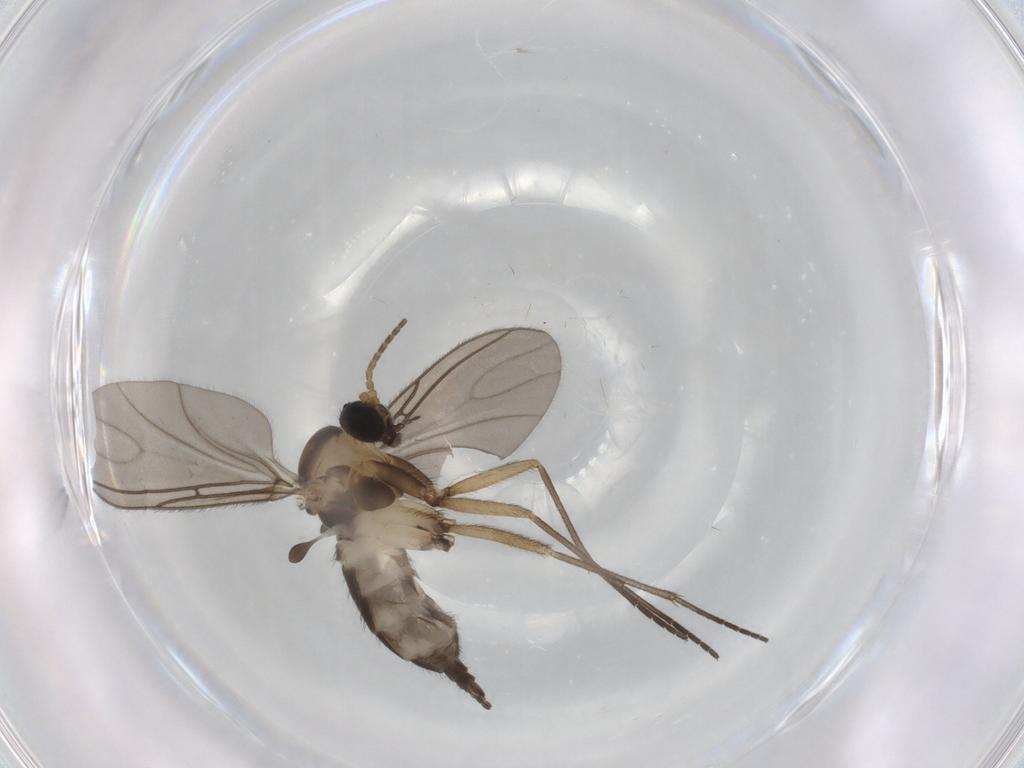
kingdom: Animalia
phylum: Arthropoda
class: Insecta
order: Diptera
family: Sciaridae
